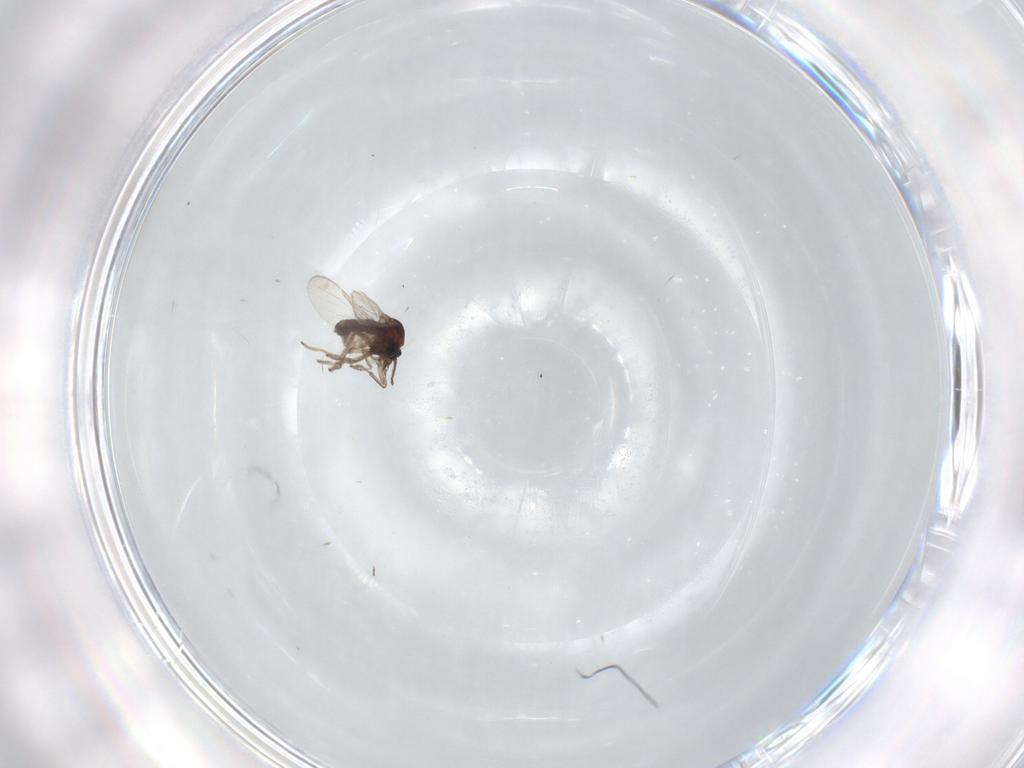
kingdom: Animalia
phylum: Arthropoda
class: Insecta
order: Diptera
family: Ceratopogonidae
